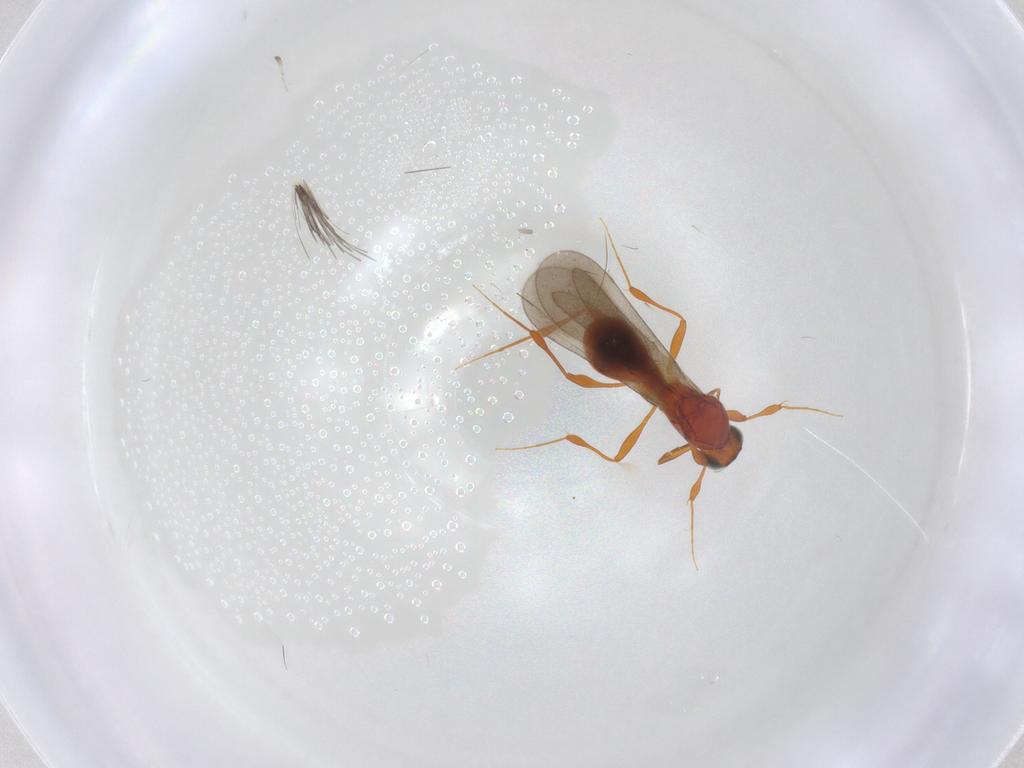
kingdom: Animalia
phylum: Arthropoda
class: Insecta
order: Hymenoptera
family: Platygastridae
